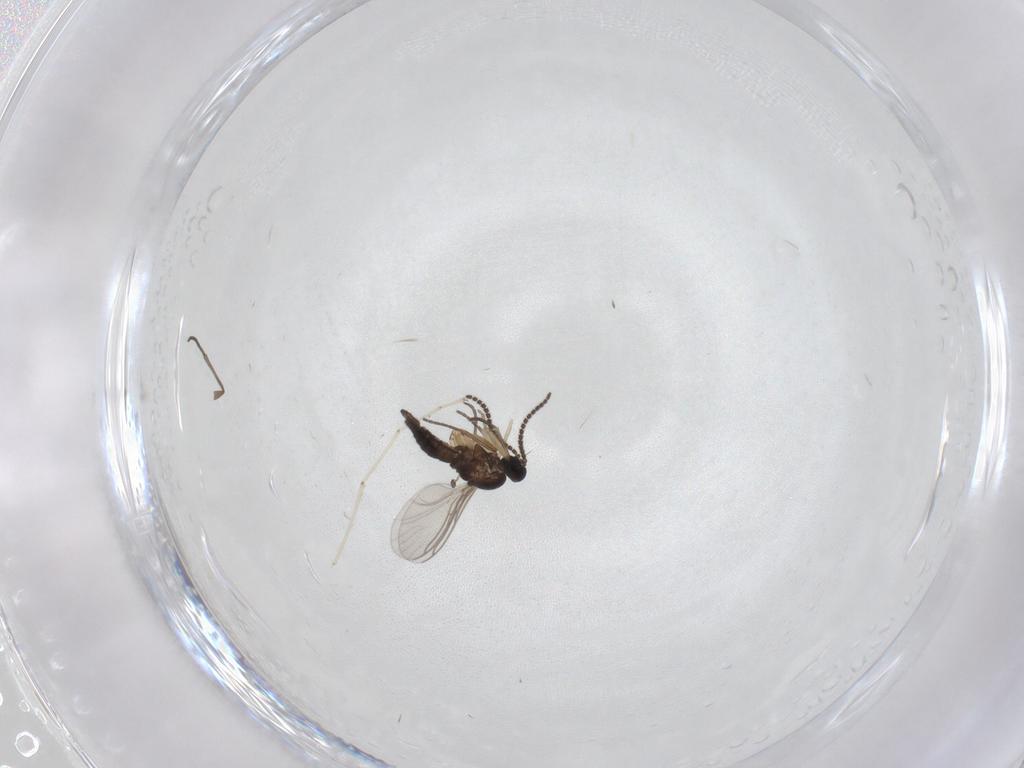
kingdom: Animalia
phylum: Arthropoda
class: Insecta
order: Diptera
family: Sciaridae
